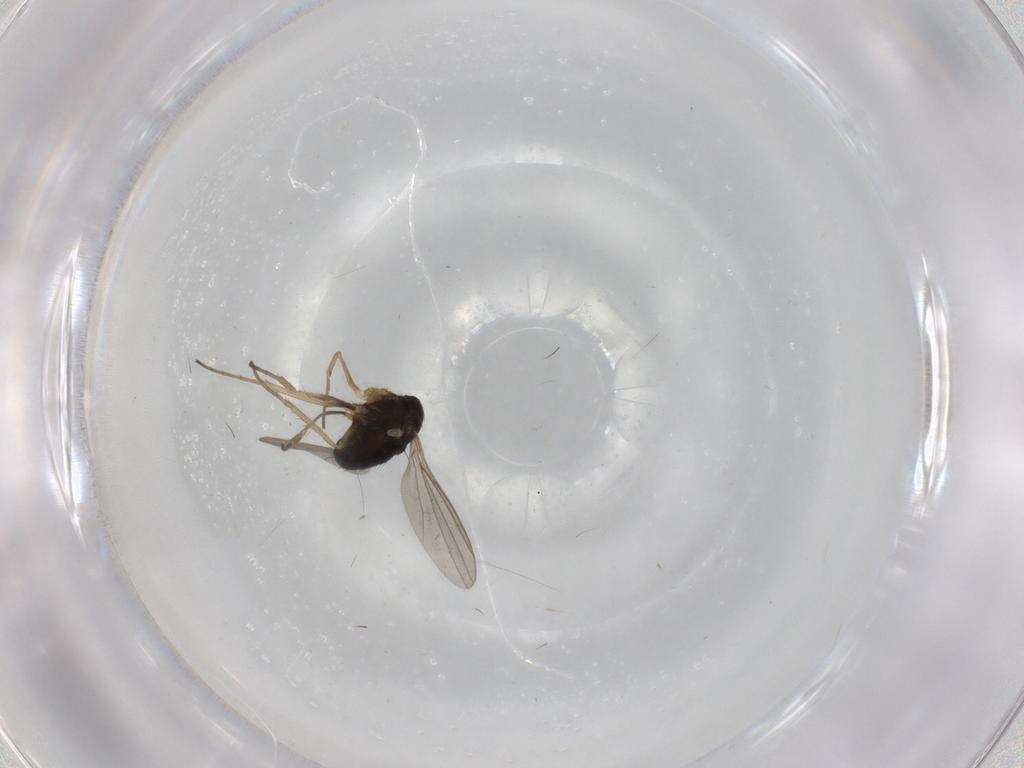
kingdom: Animalia
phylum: Arthropoda
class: Insecta
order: Diptera
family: Dolichopodidae
